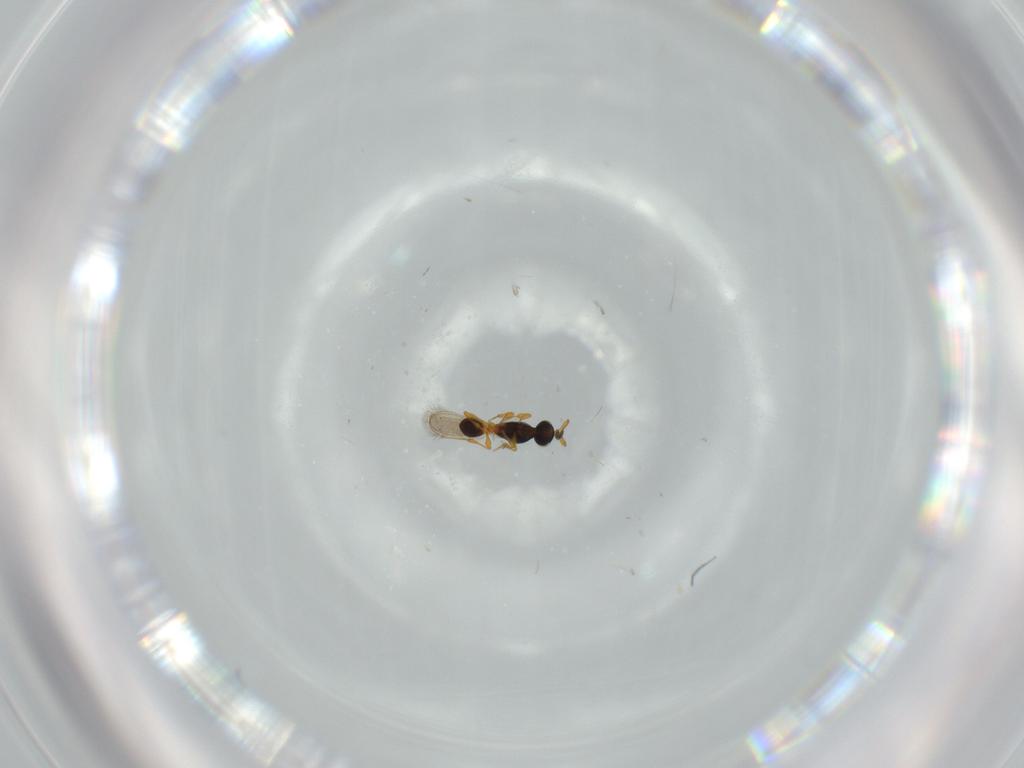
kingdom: Animalia
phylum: Arthropoda
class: Insecta
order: Hymenoptera
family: Platygastridae
